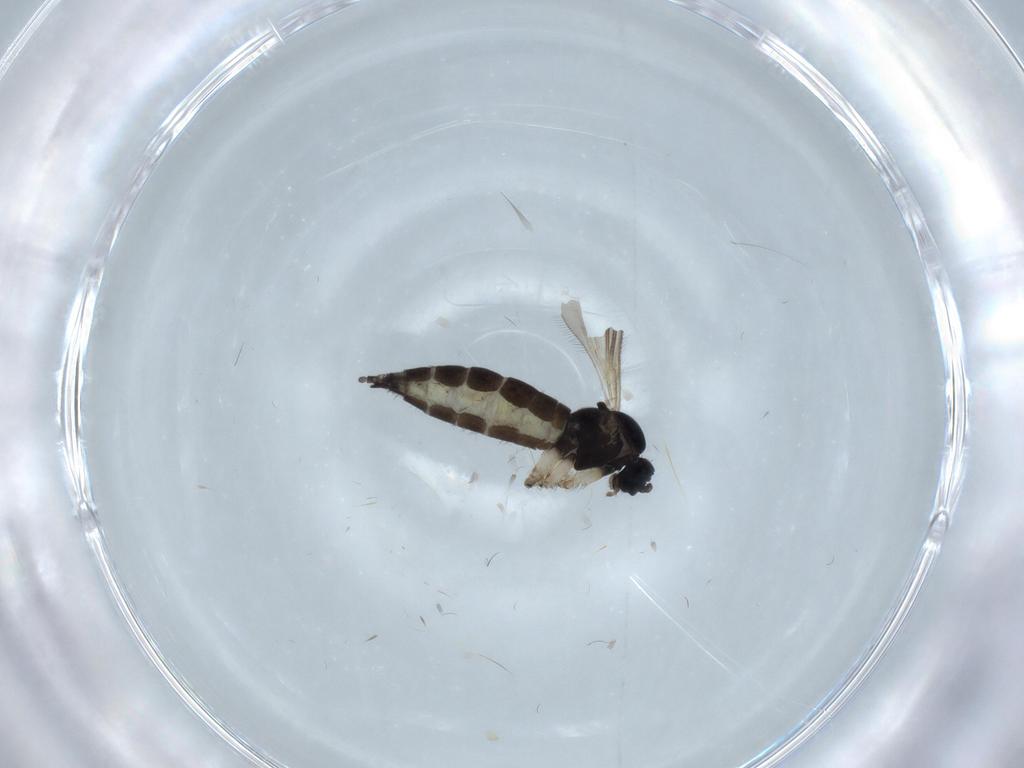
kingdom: Animalia
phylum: Arthropoda
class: Insecta
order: Diptera
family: Sciaridae
